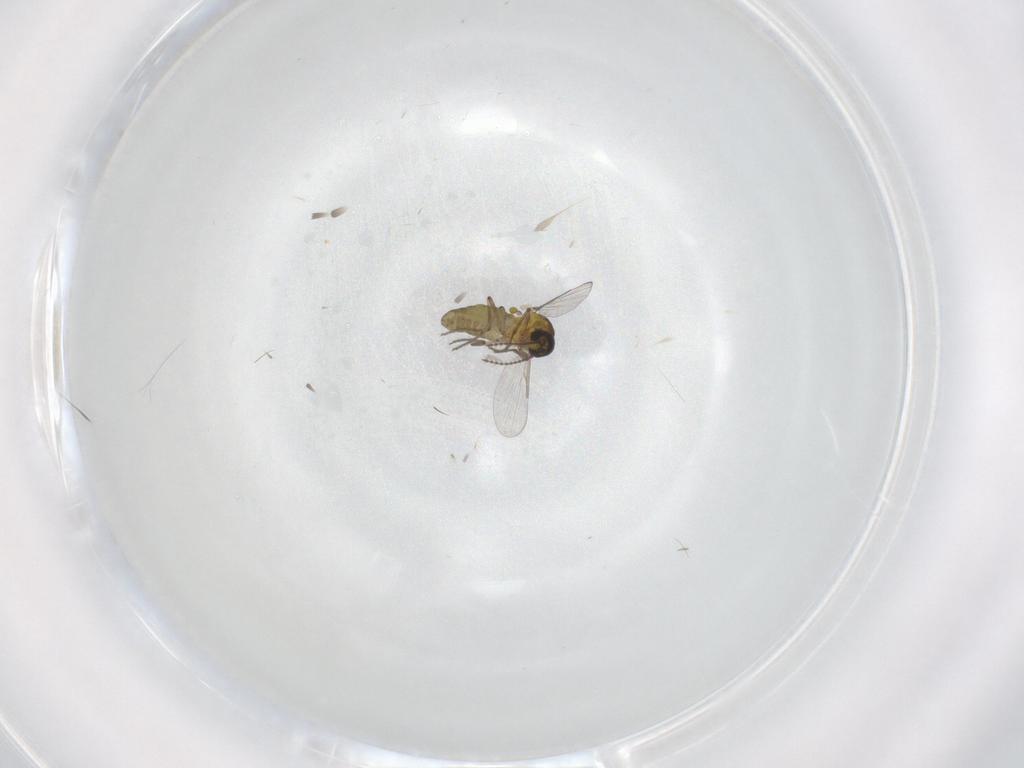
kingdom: Animalia
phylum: Arthropoda
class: Insecta
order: Diptera
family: Ceratopogonidae
